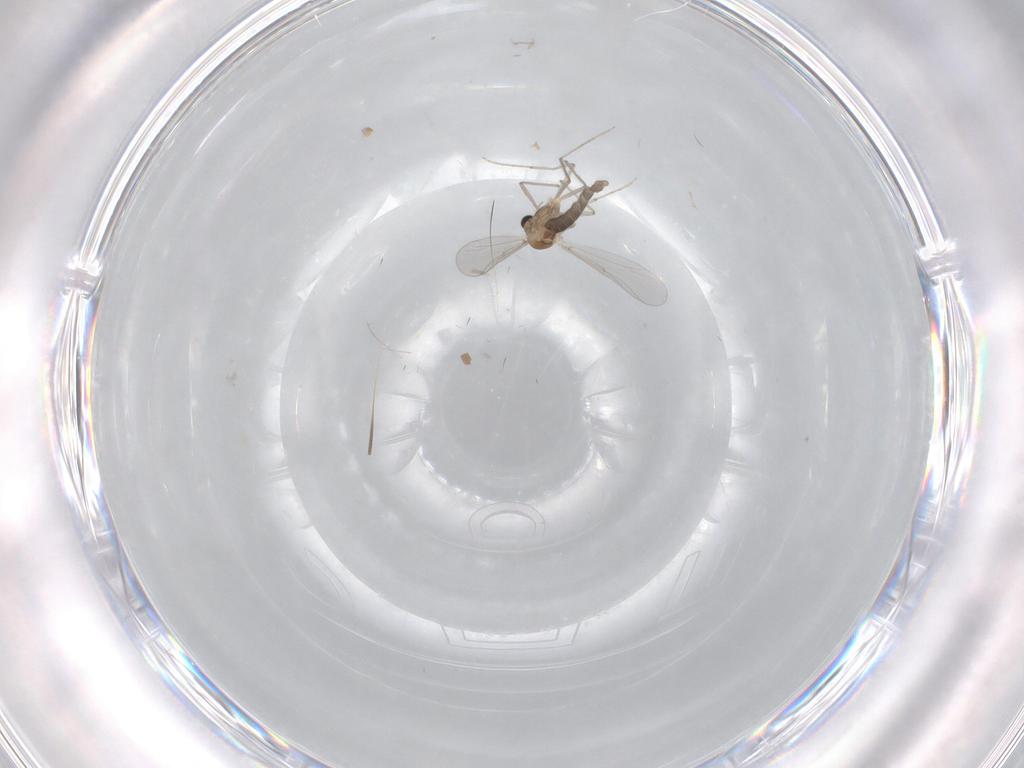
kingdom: Animalia
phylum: Arthropoda
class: Insecta
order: Diptera
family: Chironomidae
